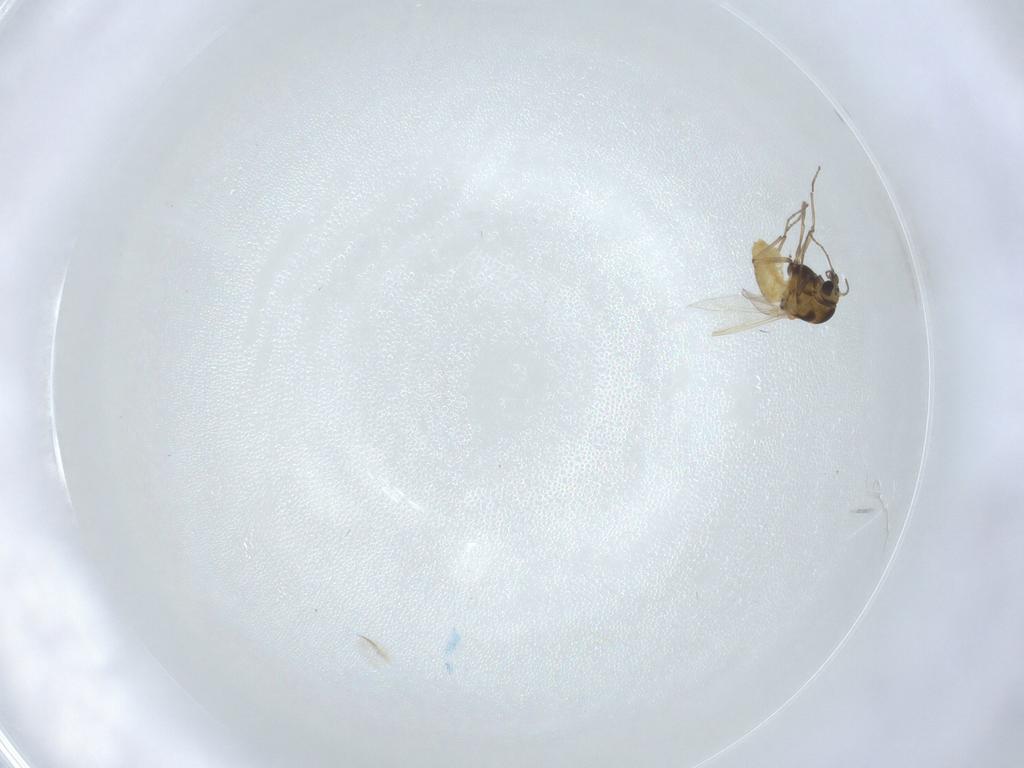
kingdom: Animalia
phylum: Arthropoda
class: Insecta
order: Diptera
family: Chironomidae
